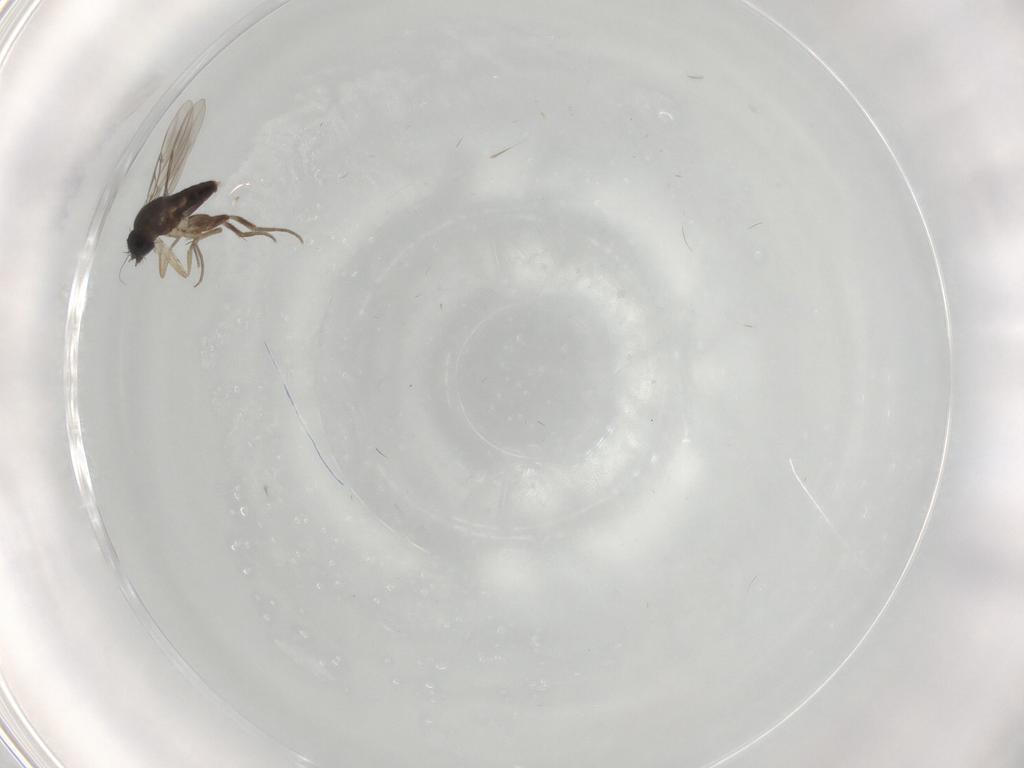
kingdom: Animalia
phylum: Arthropoda
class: Insecta
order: Diptera
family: Phoridae
